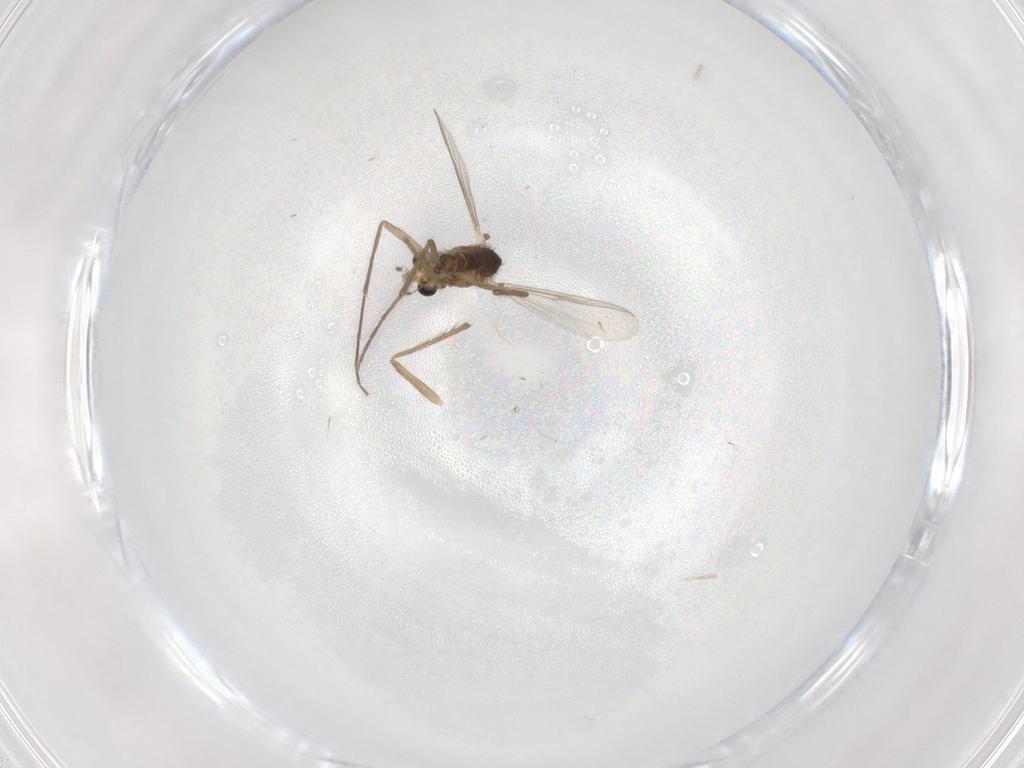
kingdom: Animalia
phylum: Arthropoda
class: Insecta
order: Diptera
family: Chironomidae
